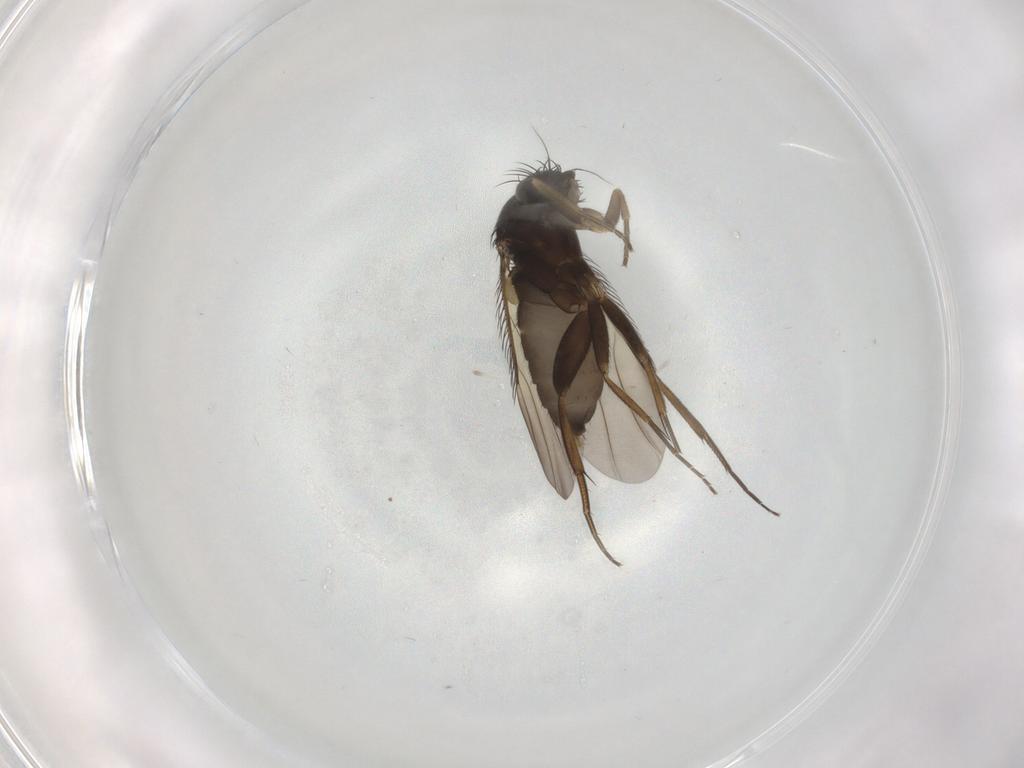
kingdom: Animalia
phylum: Arthropoda
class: Insecta
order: Diptera
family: Phoridae
